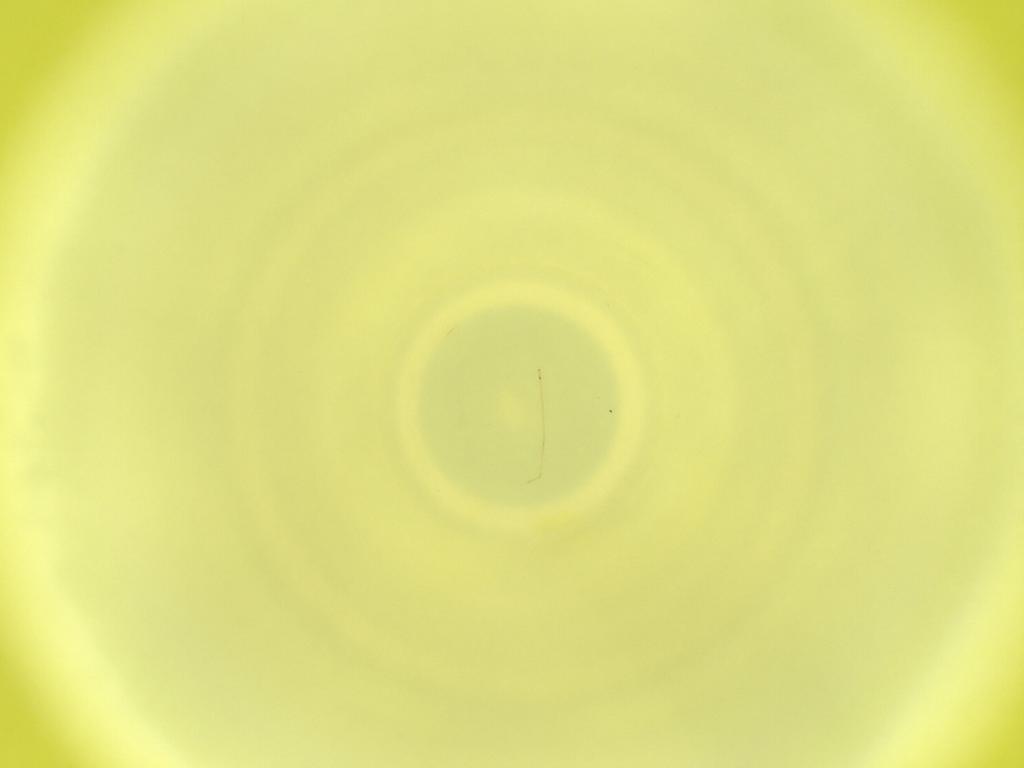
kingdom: Animalia
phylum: Arthropoda
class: Insecta
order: Diptera
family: Cecidomyiidae
